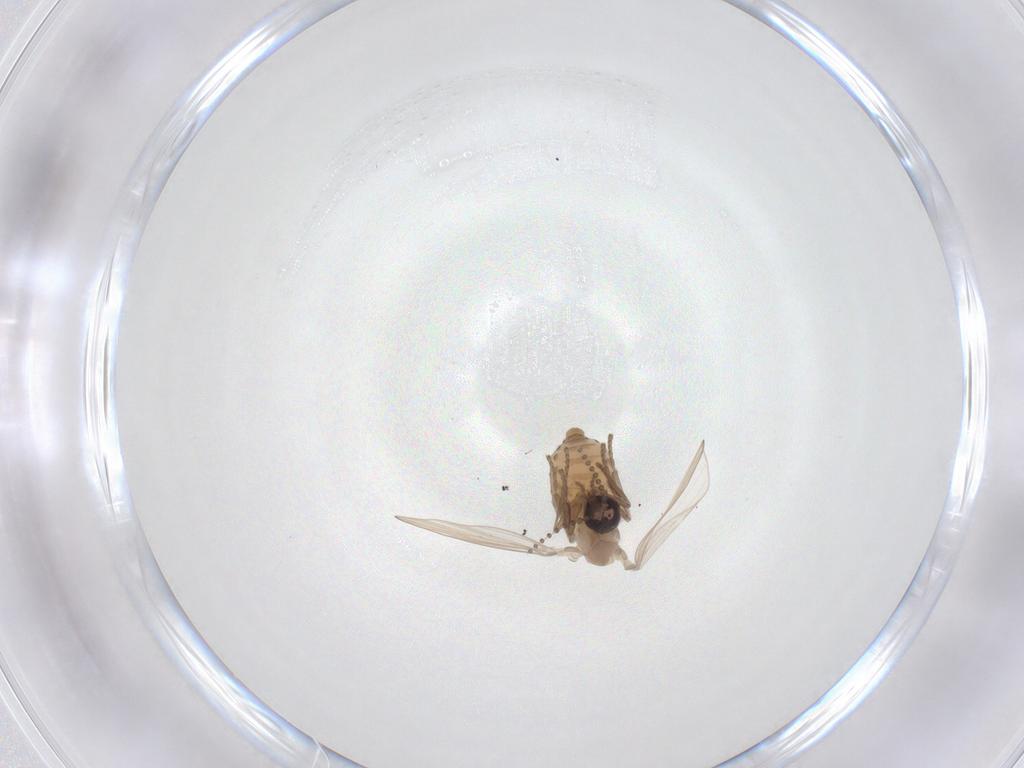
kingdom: Animalia
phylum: Arthropoda
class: Insecta
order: Diptera
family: Psychodidae
